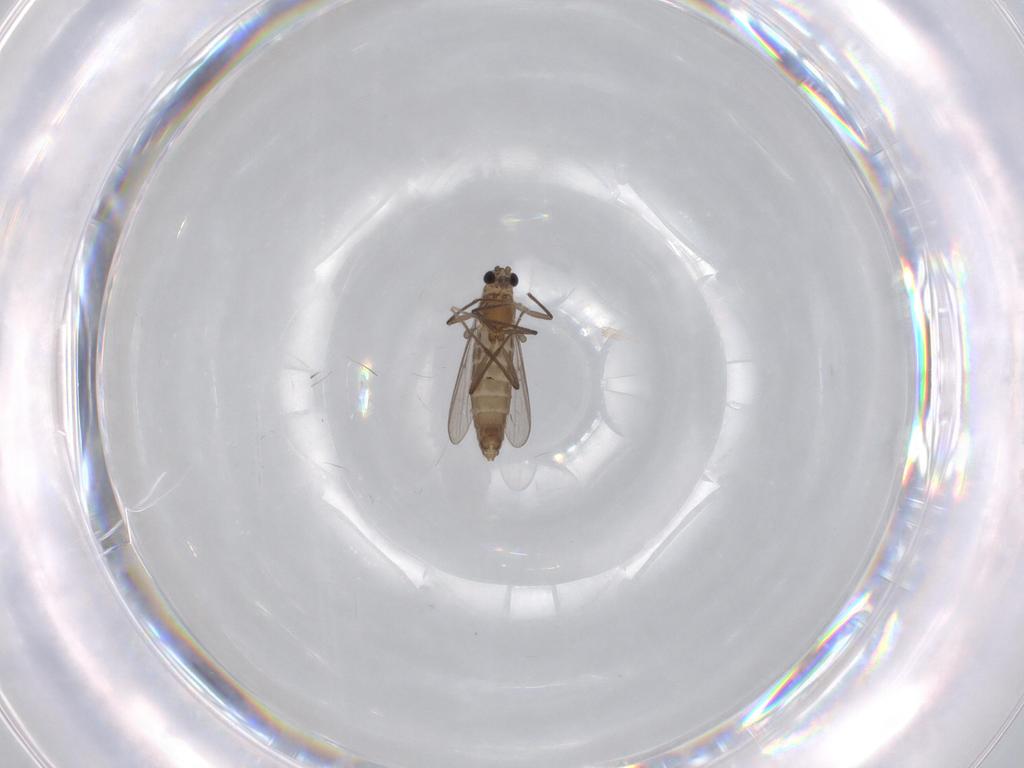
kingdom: Animalia
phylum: Arthropoda
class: Insecta
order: Diptera
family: Chironomidae
